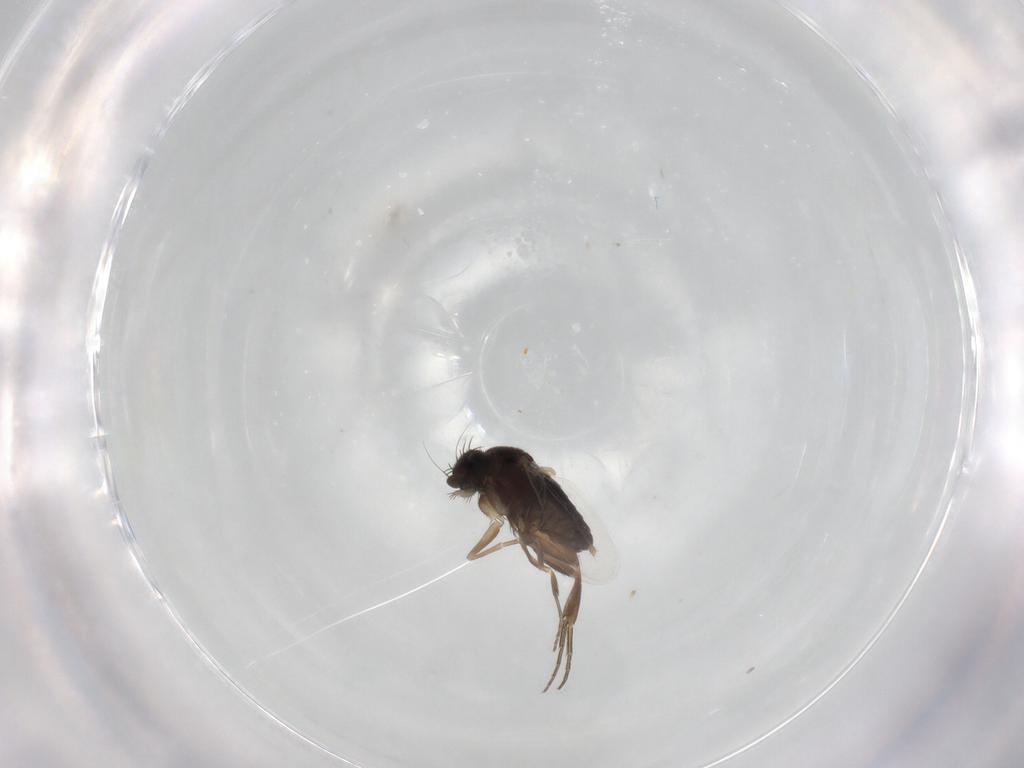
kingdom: Animalia
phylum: Arthropoda
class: Insecta
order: Diptera
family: Phoridae
